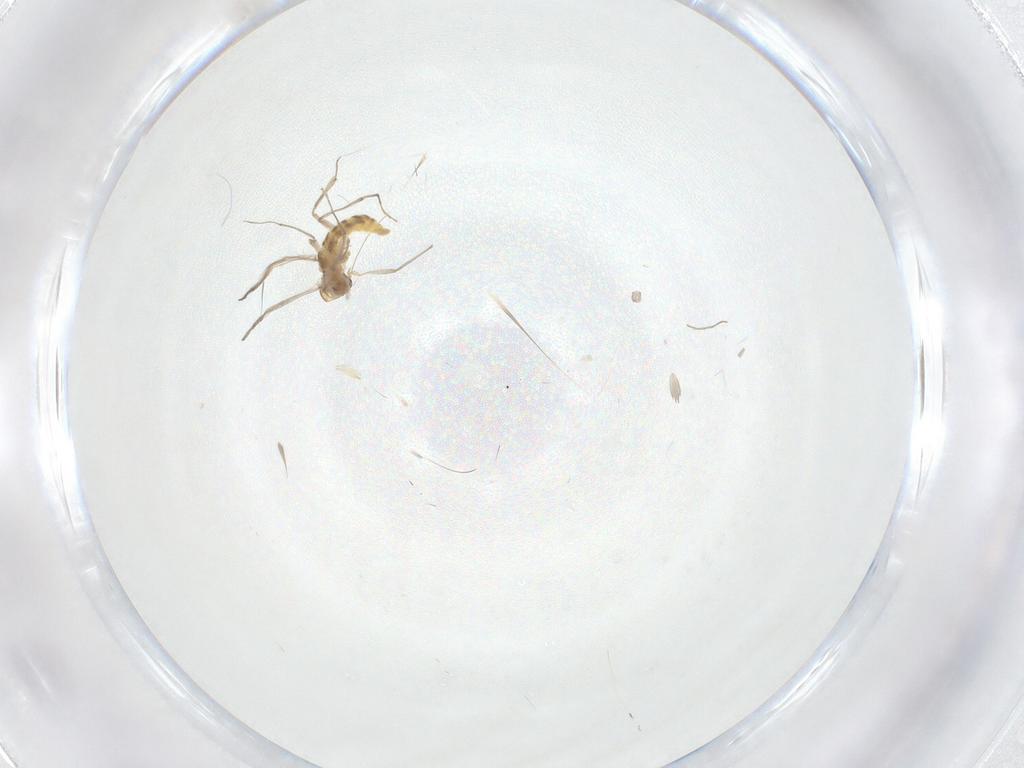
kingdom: Animalia
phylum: Arthropoda
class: Insecta
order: Diptera
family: Chironomidae
